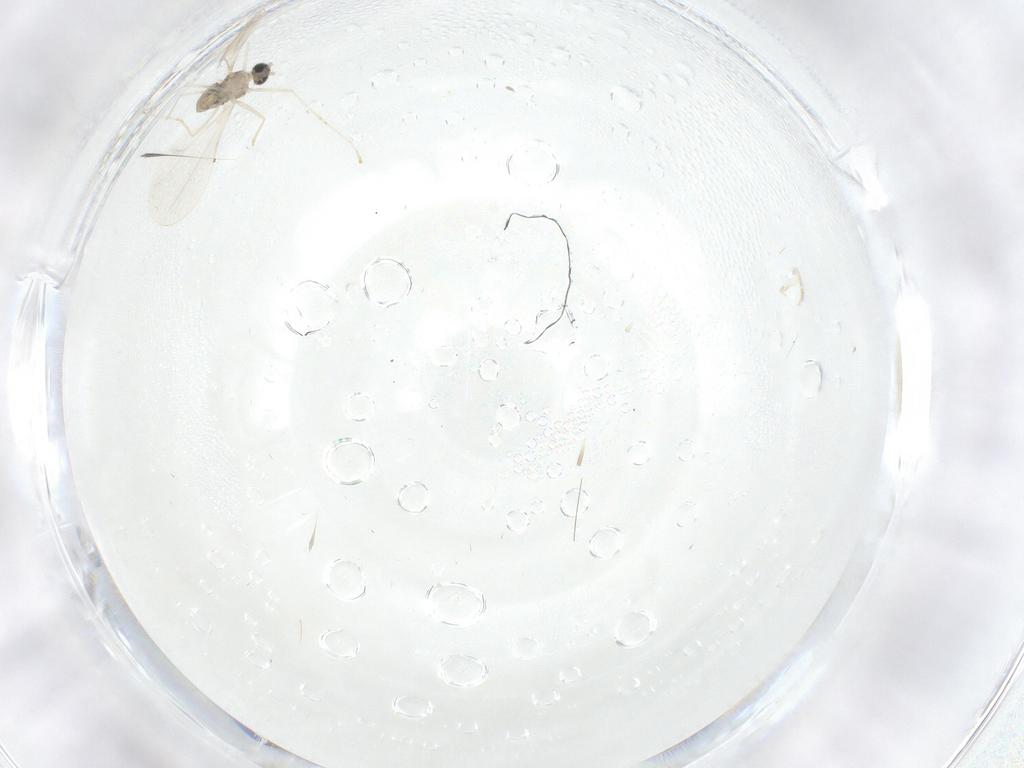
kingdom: Animalia
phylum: Arthropoda
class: Insecta
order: Diptera
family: Cecidomyiidae
